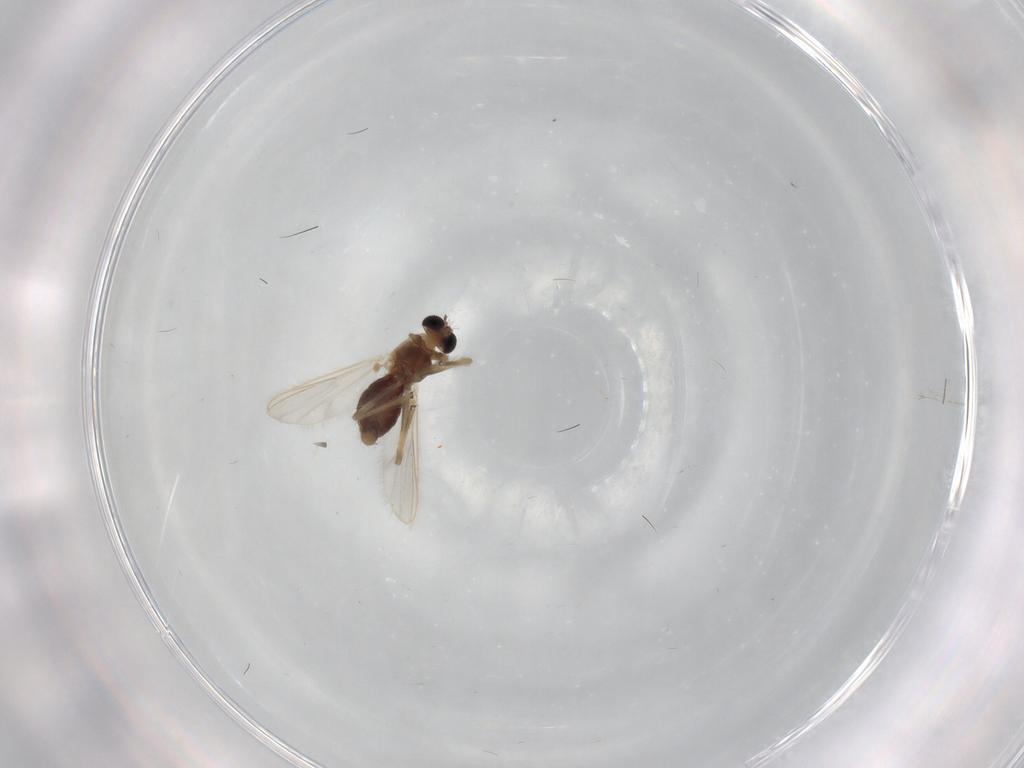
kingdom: Animalia
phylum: Arthropoda
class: Insecta
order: Diptera
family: Chironomidae
